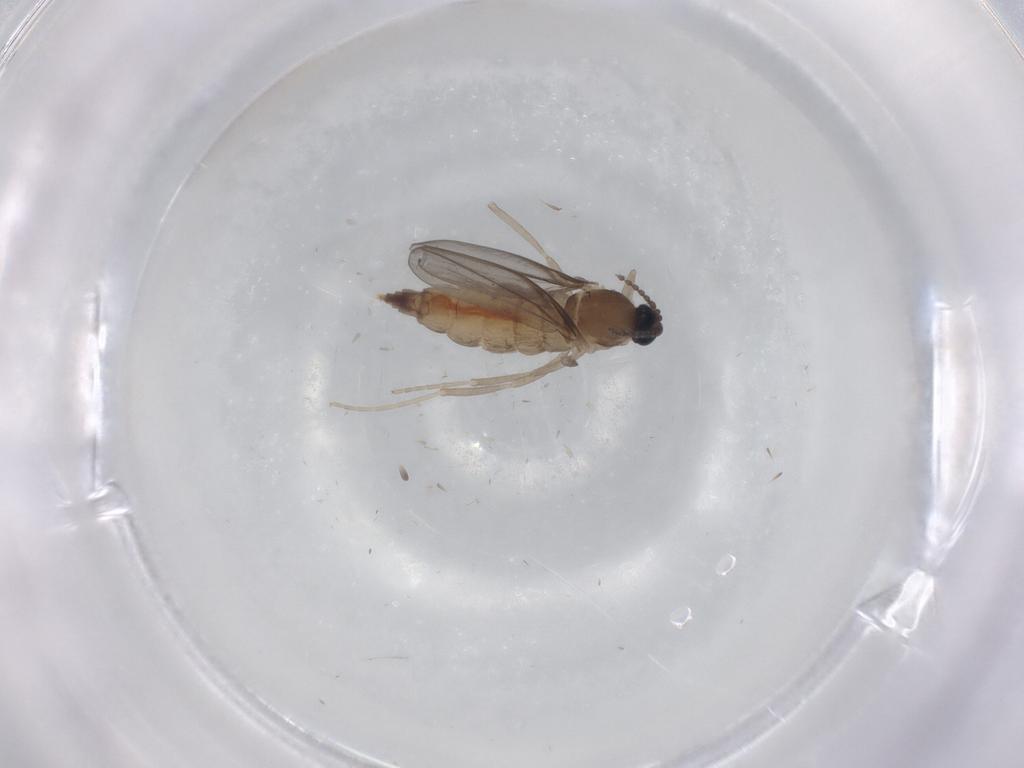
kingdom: Animalia
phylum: Arthropoda
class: Insecta
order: Diptera
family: Cecidomyiidae
